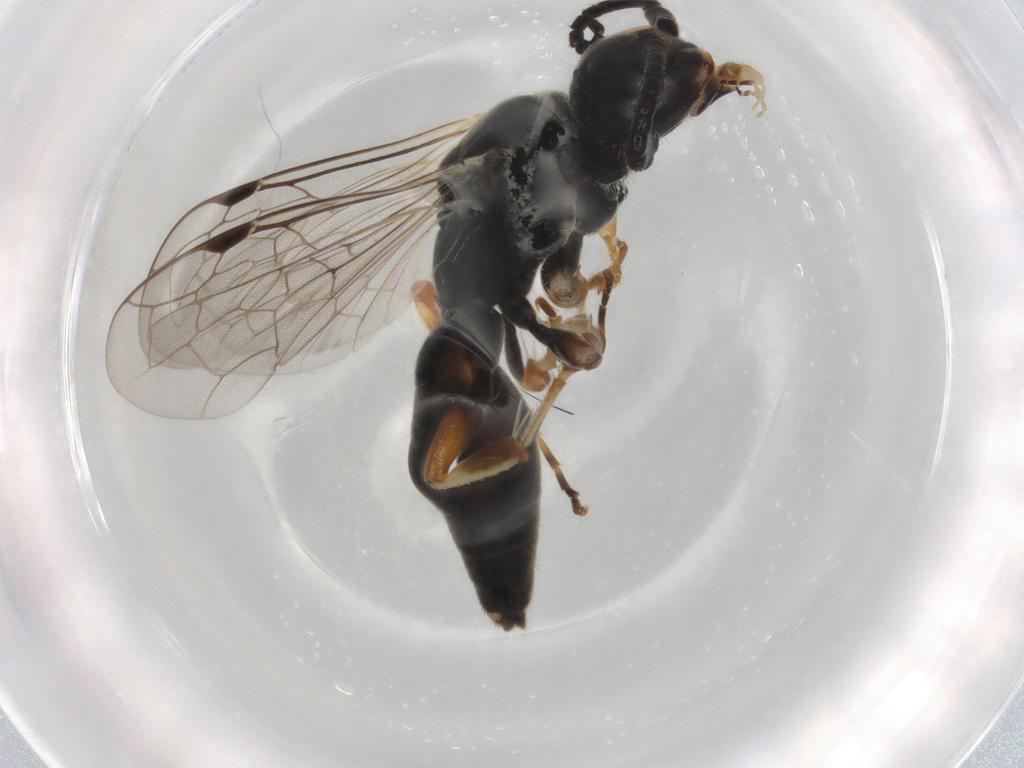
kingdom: Animalia
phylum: Arthropoda
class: Insecta
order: Hymenoptera
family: Thynnidae
